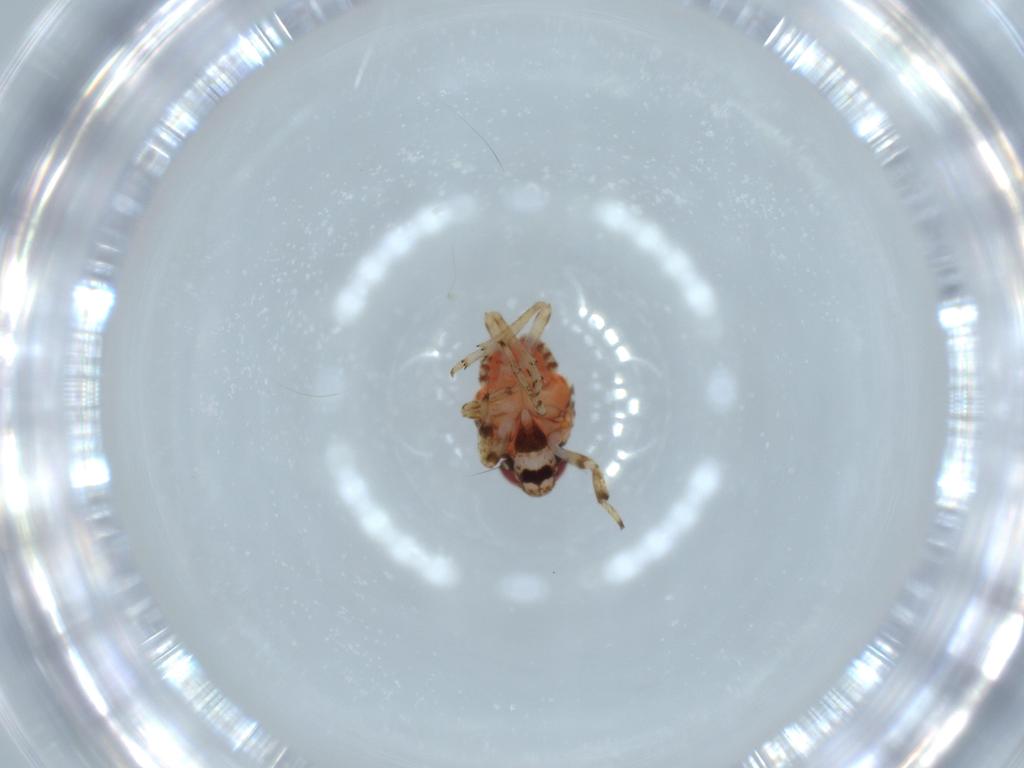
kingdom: Animalia
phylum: Arthropoda
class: Insecta
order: Hemiptera
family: Issidae
